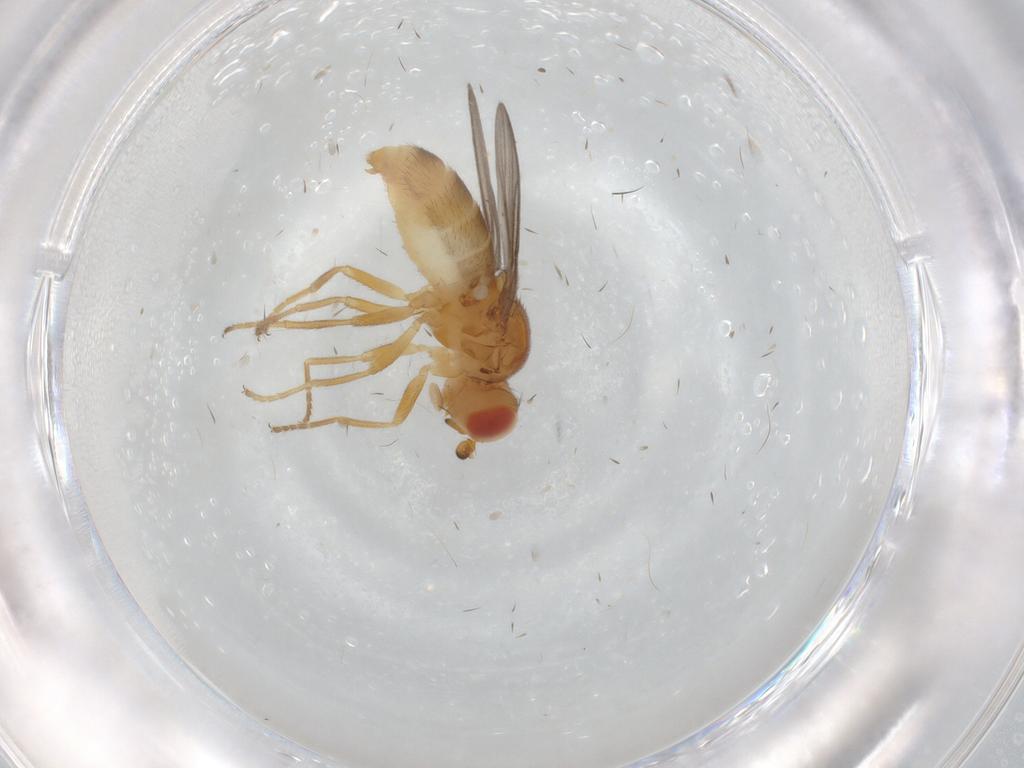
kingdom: Animalia
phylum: Arthropoda
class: Insecta
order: Diptera
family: Chloropidae
